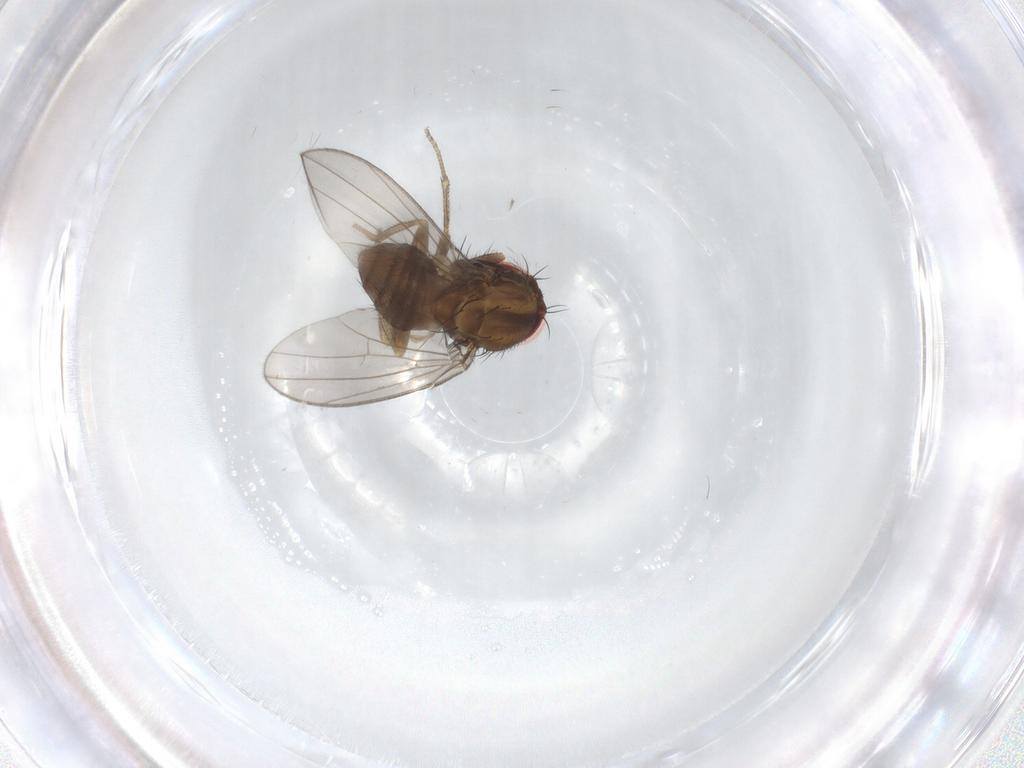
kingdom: Animalia
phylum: Arthropoda
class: Insecta
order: Diptera
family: Drosophilidae
